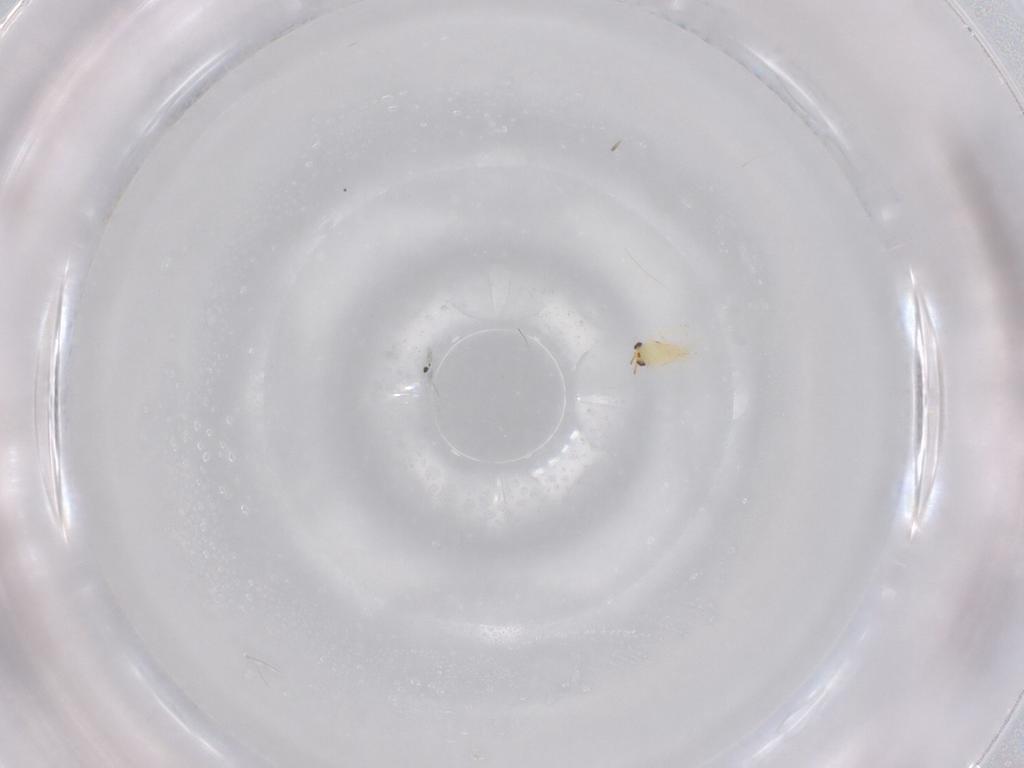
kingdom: Animalia
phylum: Arthropoda
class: Insecta
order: Hymenoptera
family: Aphelinidae
